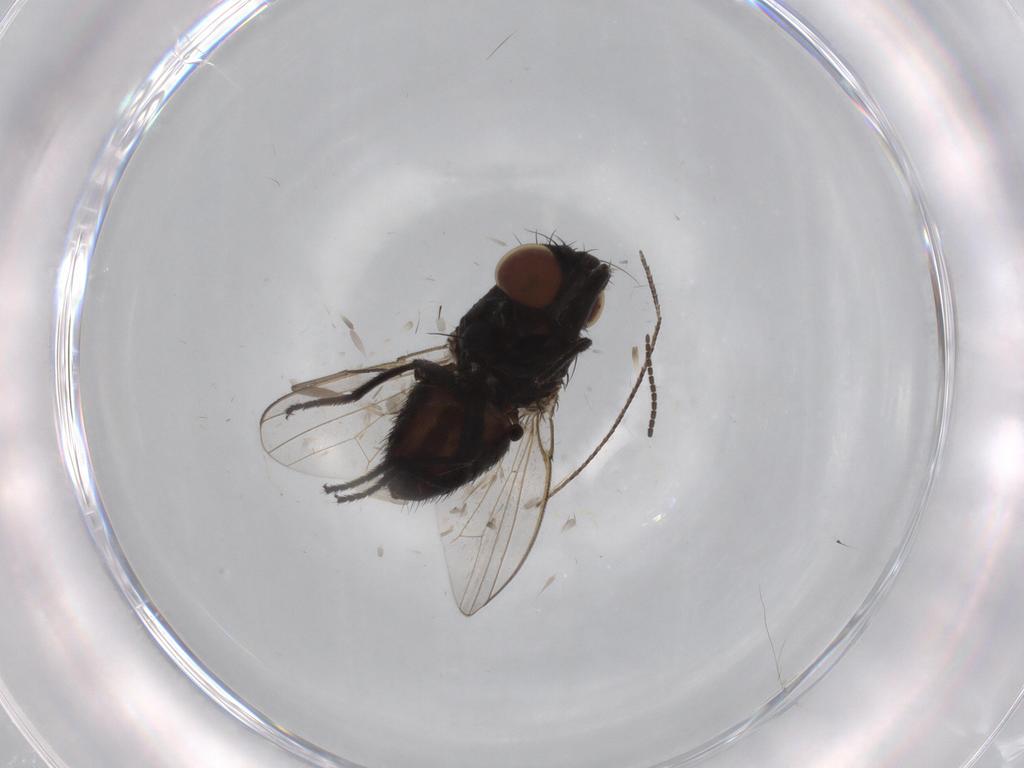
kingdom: Animalia
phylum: Arthropoda
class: Insecta
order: Diptera
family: Sciaridae
